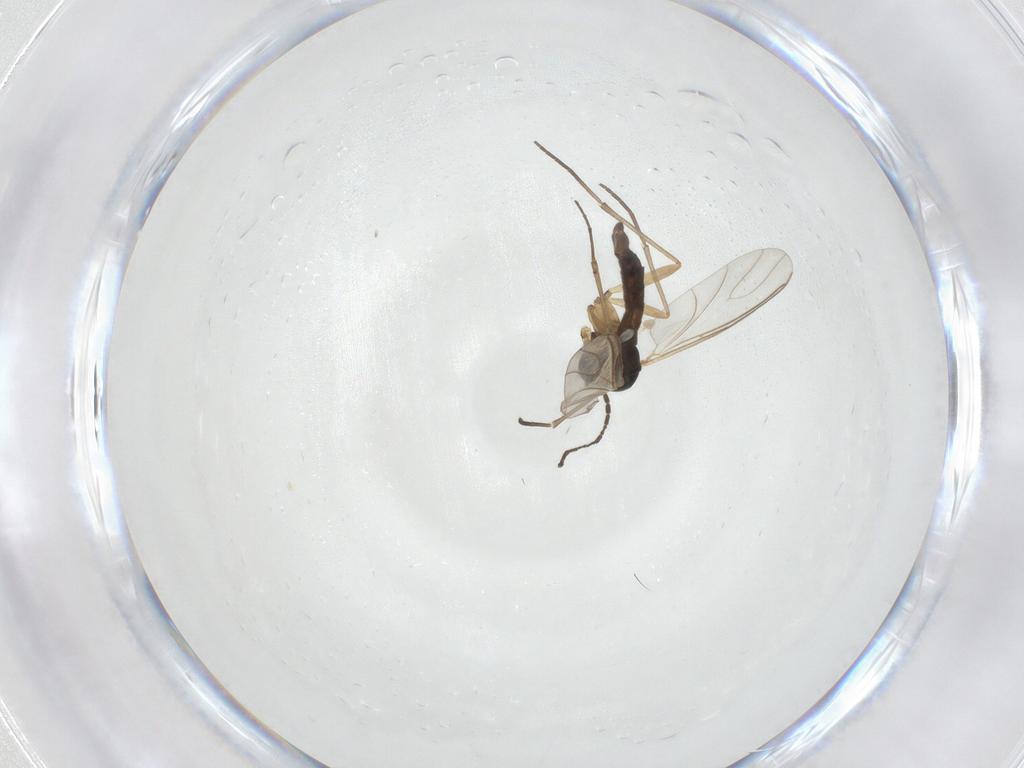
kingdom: Animalia
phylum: Arthropoda
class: Insecta
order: Diptera
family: Sciaridae
